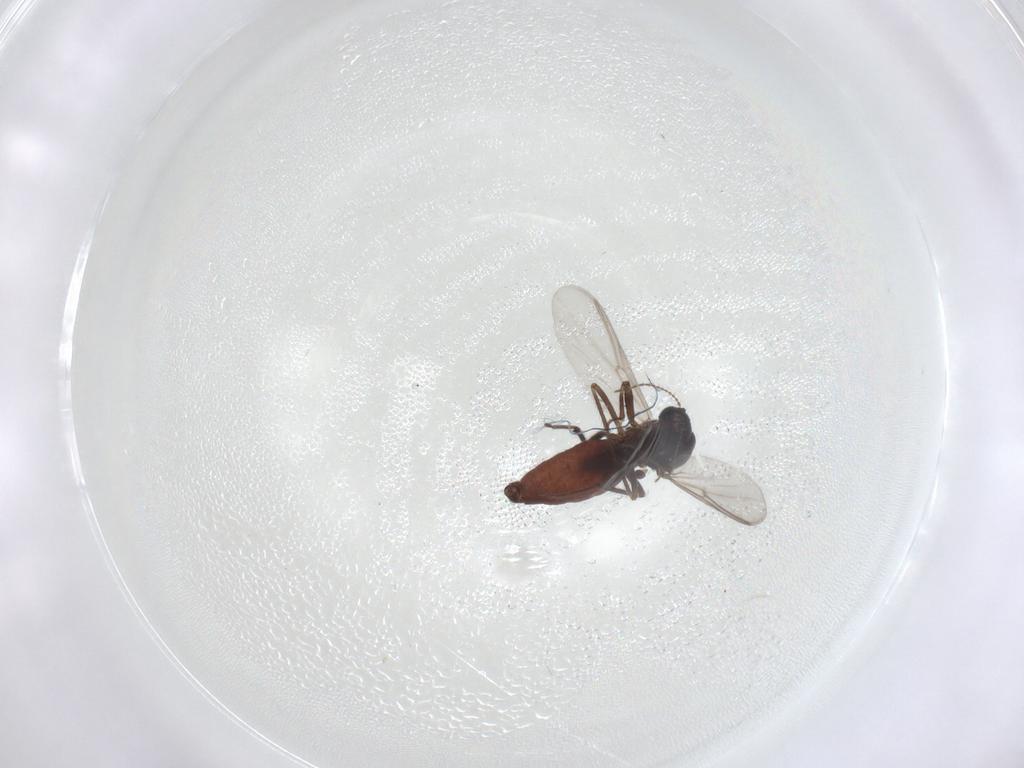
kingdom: Animalia
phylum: Arthropoda
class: Insecta
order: Diptera
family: Ceratopogonidae
